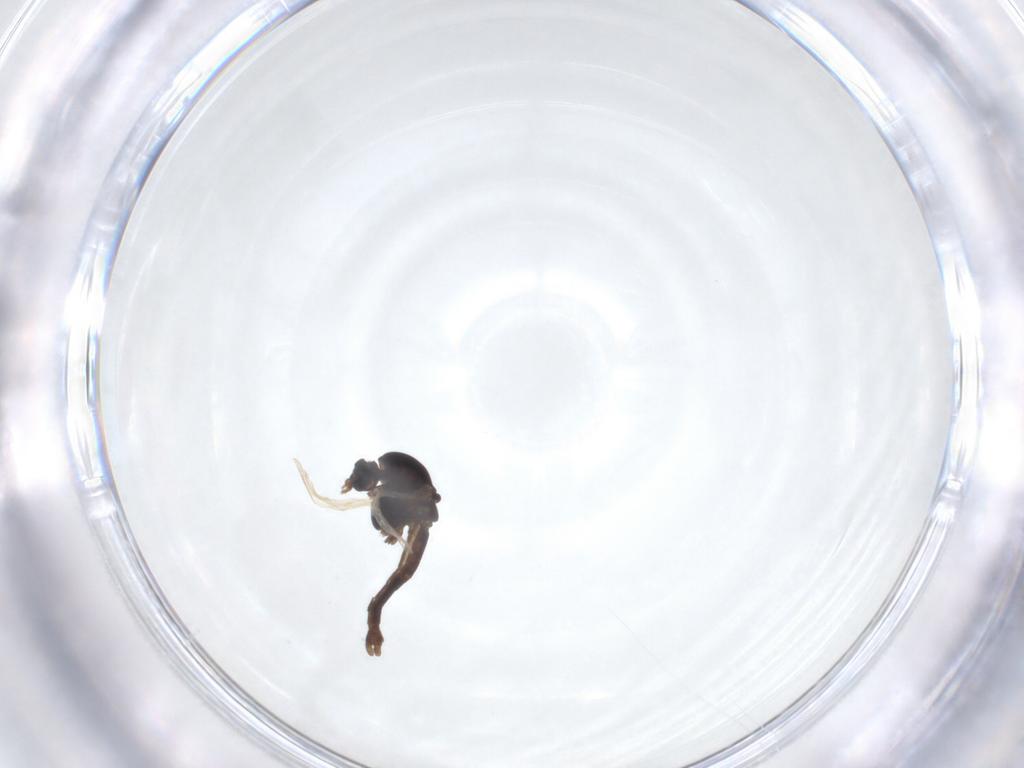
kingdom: Animalia
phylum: Arthropoda
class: Insecta
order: Diptera
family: Chironomidae
